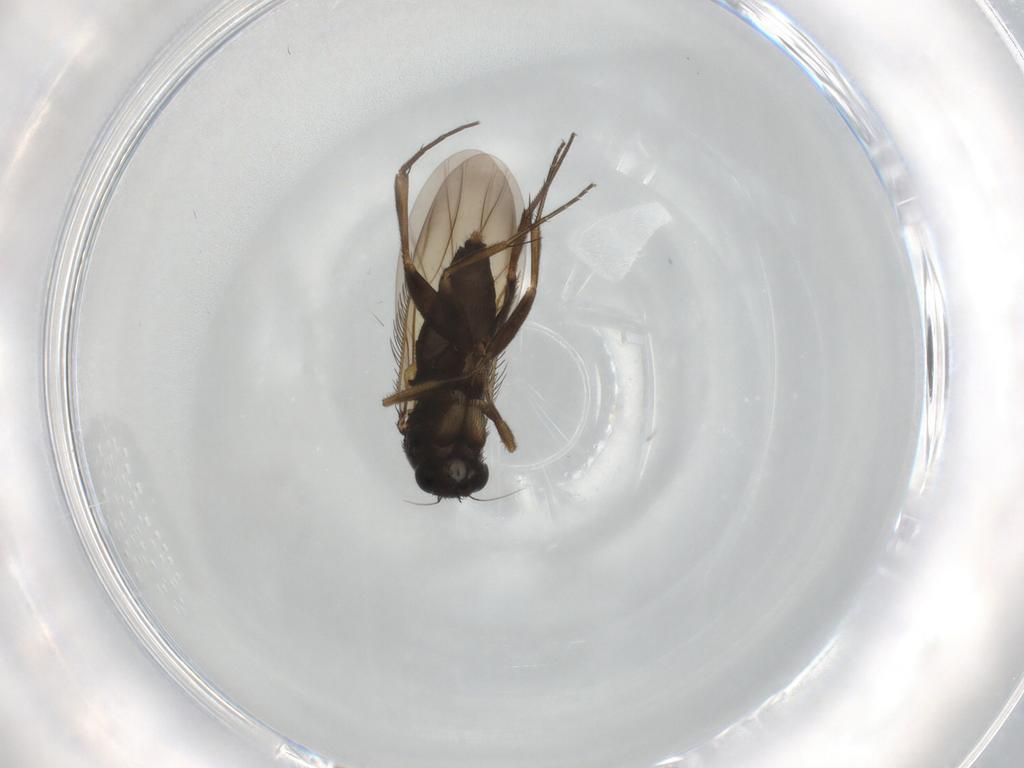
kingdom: Animalia
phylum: Arthropoda
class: Insecta
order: Diptera
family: Phoridae
